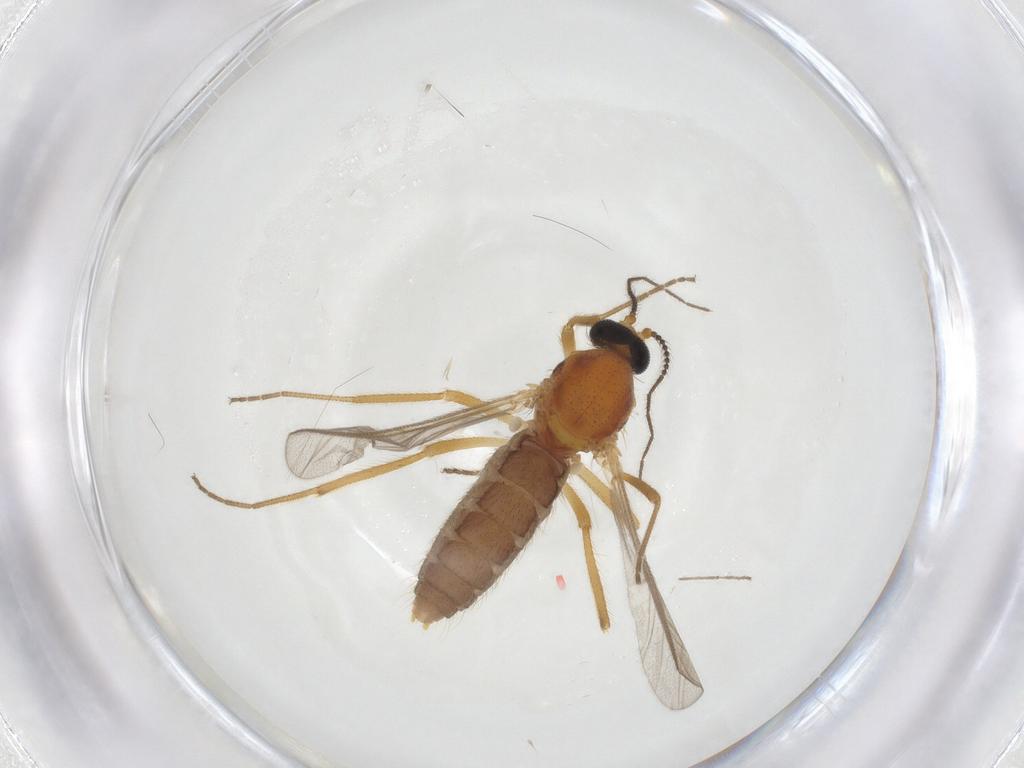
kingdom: Animalia
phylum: Arthropoda
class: Insecta
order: Diptera
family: Ceratopogonidae
